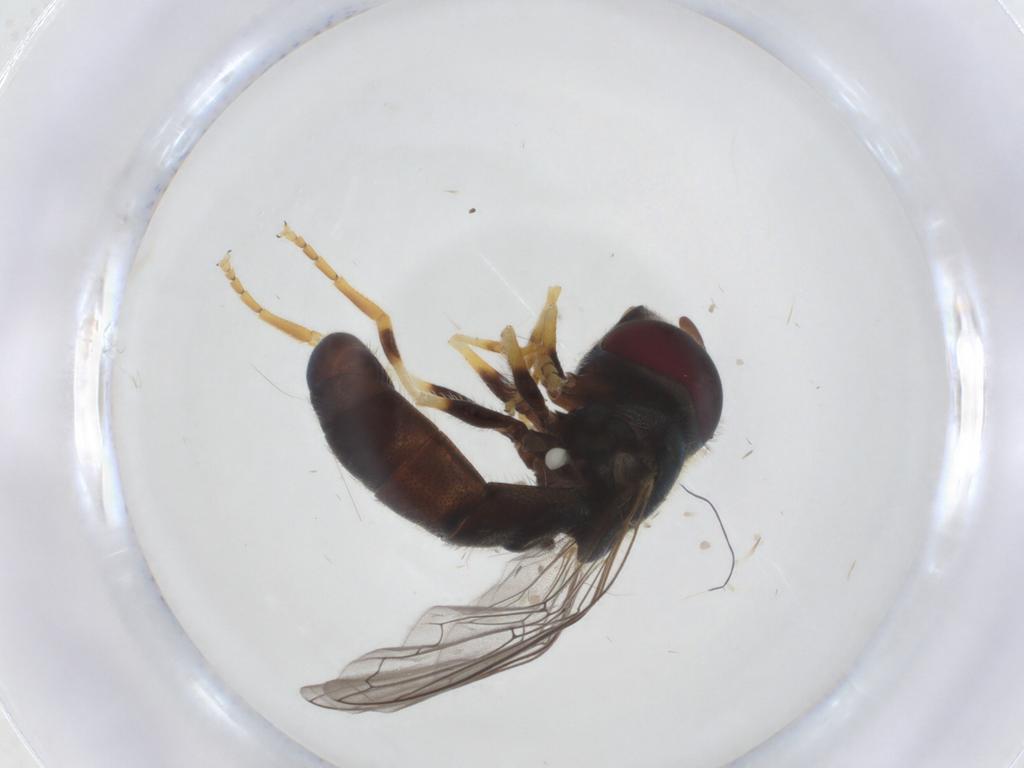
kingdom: Animalia
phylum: Arthropoda
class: Insecta
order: Diptera
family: Syrphidae
